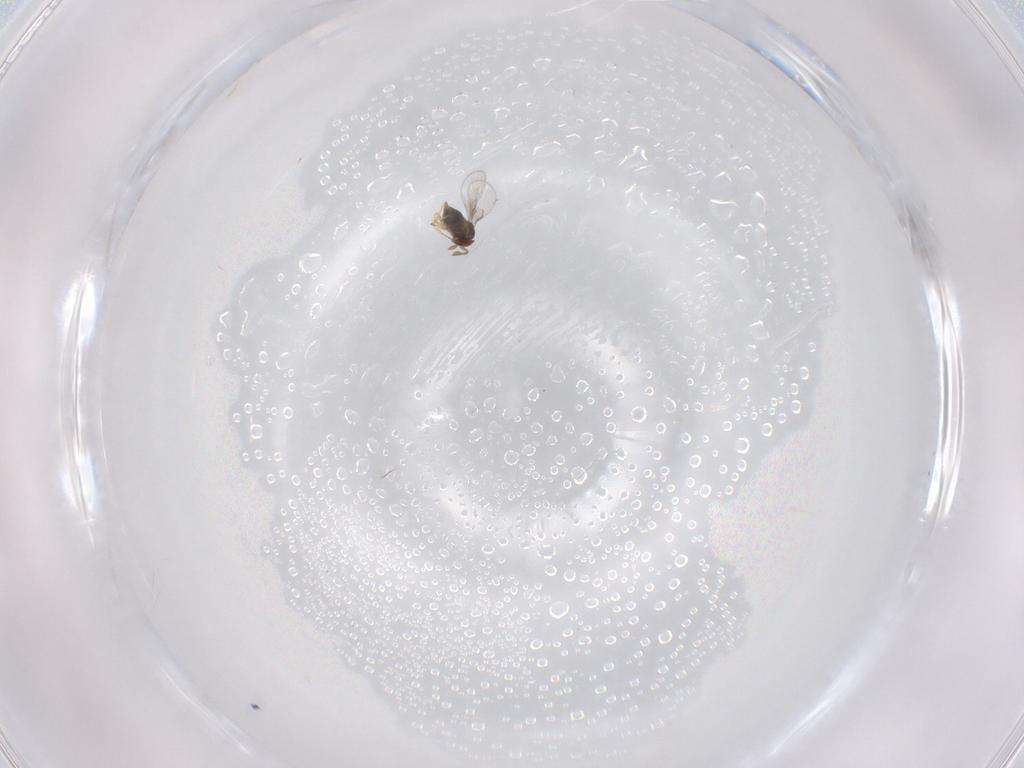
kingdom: Animalia
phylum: Arthropoda
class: Insecta
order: Hymenoptera
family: Trichogrammatidae
